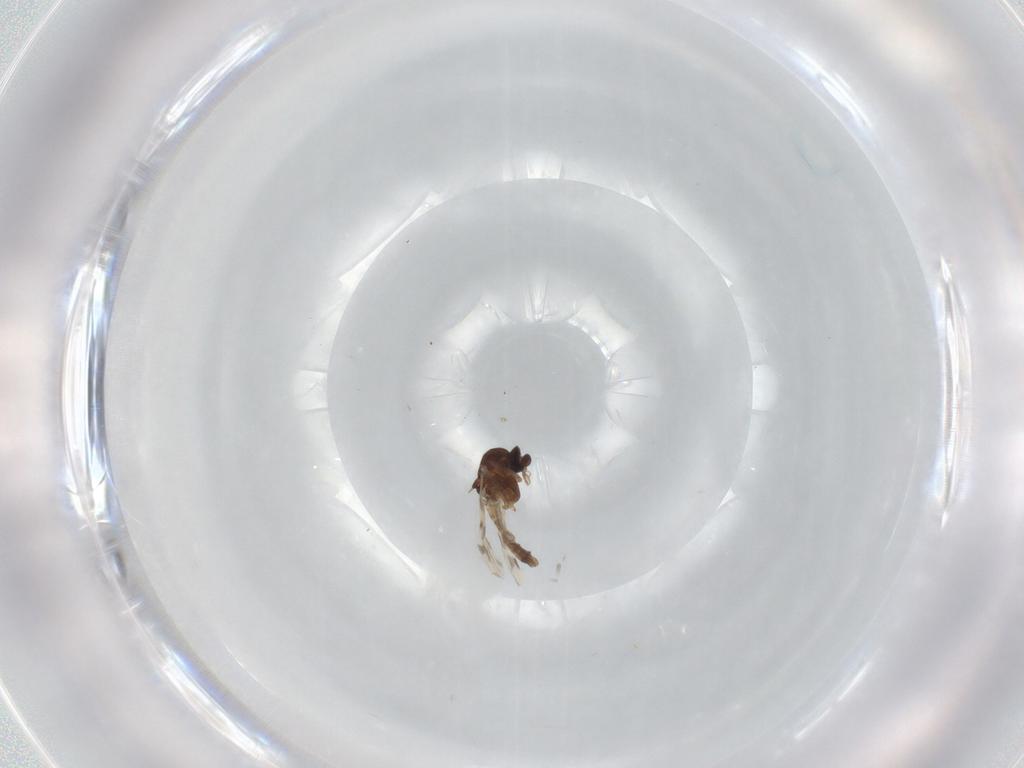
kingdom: Animalia
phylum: Arthropoda
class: Insecta
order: Diptera
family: Ceratopogonidae
